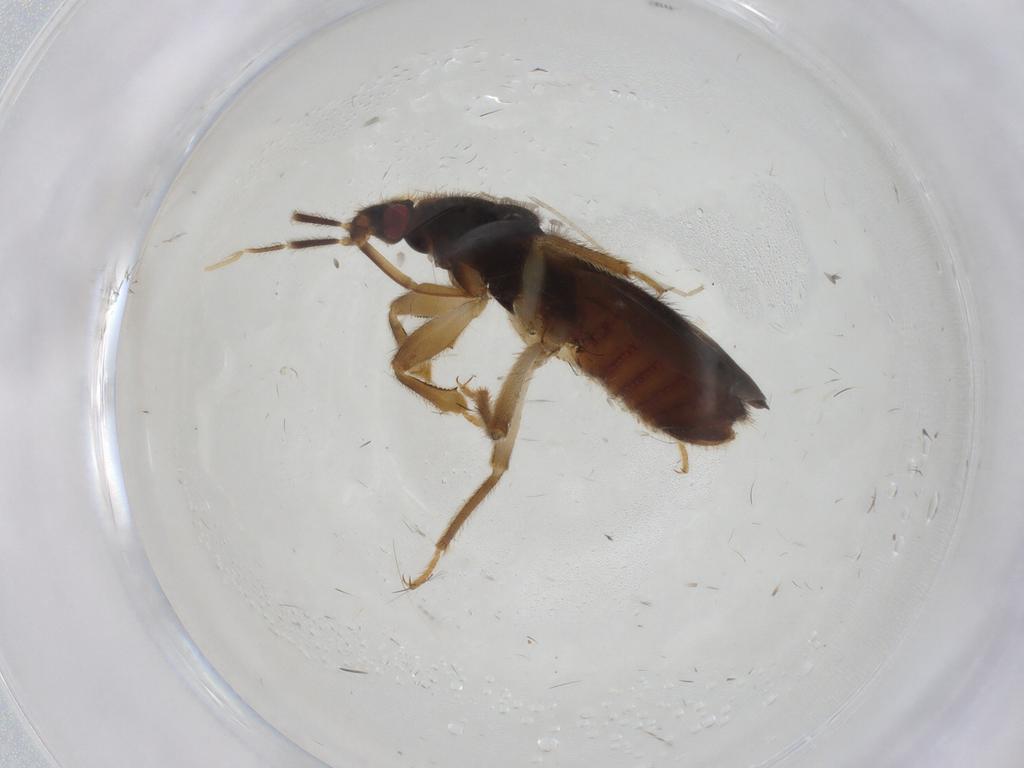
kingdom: Animalia
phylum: Arthropoda
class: Insecta
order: Hemiptera
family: Nabidae
